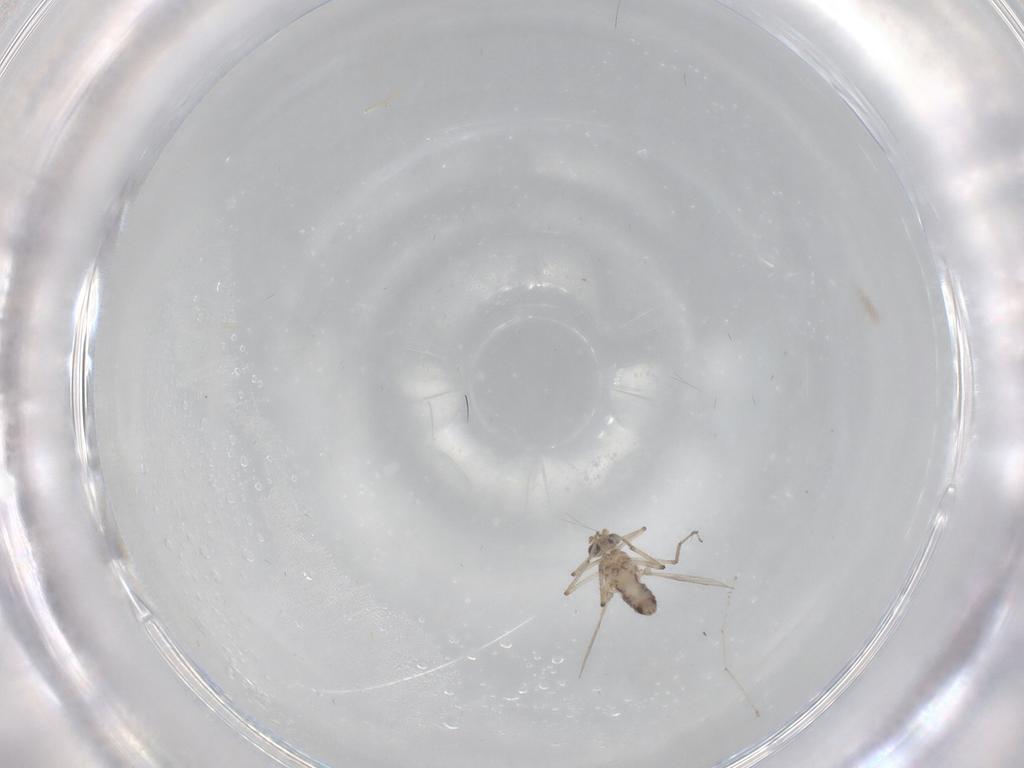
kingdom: Animalia
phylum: Arthropoda
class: Insecta
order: Diptera
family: Ceratopogonidae
